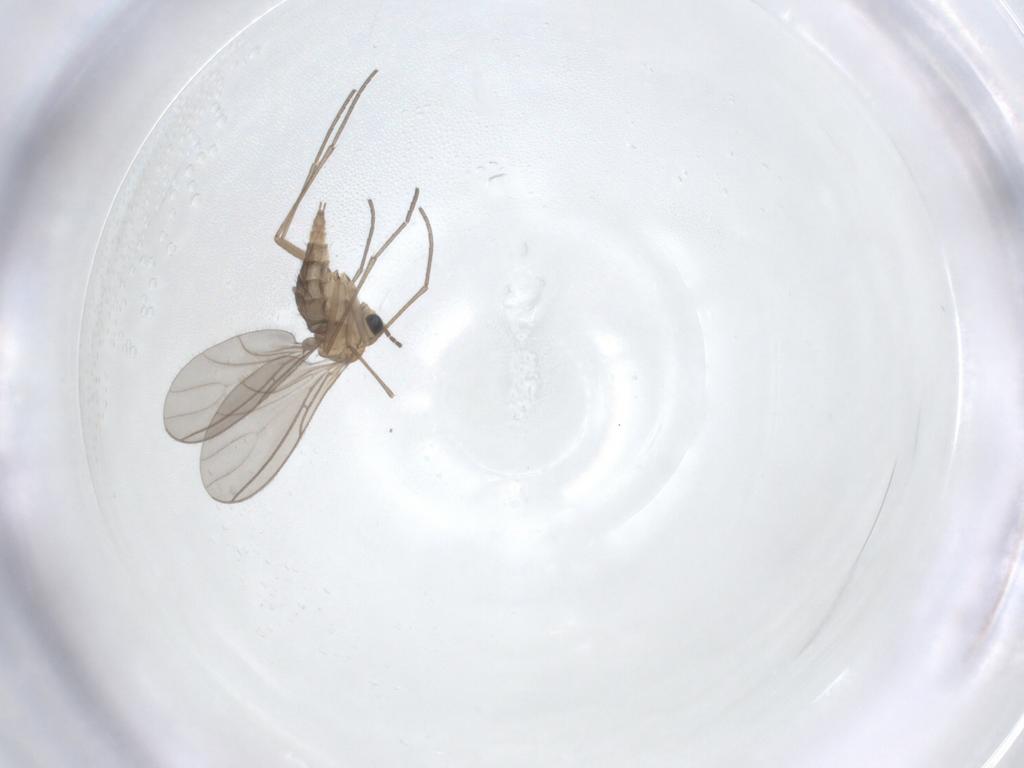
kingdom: Animalia
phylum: Arthropoda
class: Insecta
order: Diptera
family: Sciaridae
